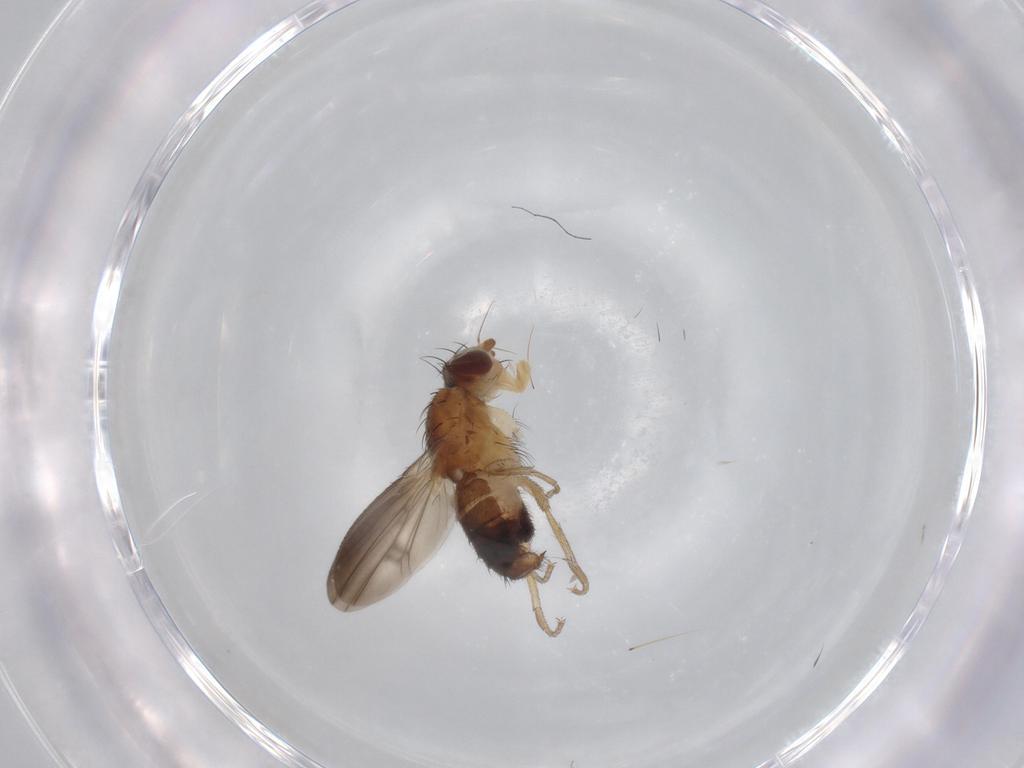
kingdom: Animalia
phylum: Arthropoda
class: Insecta
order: Diptera
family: Heleomyzidae
